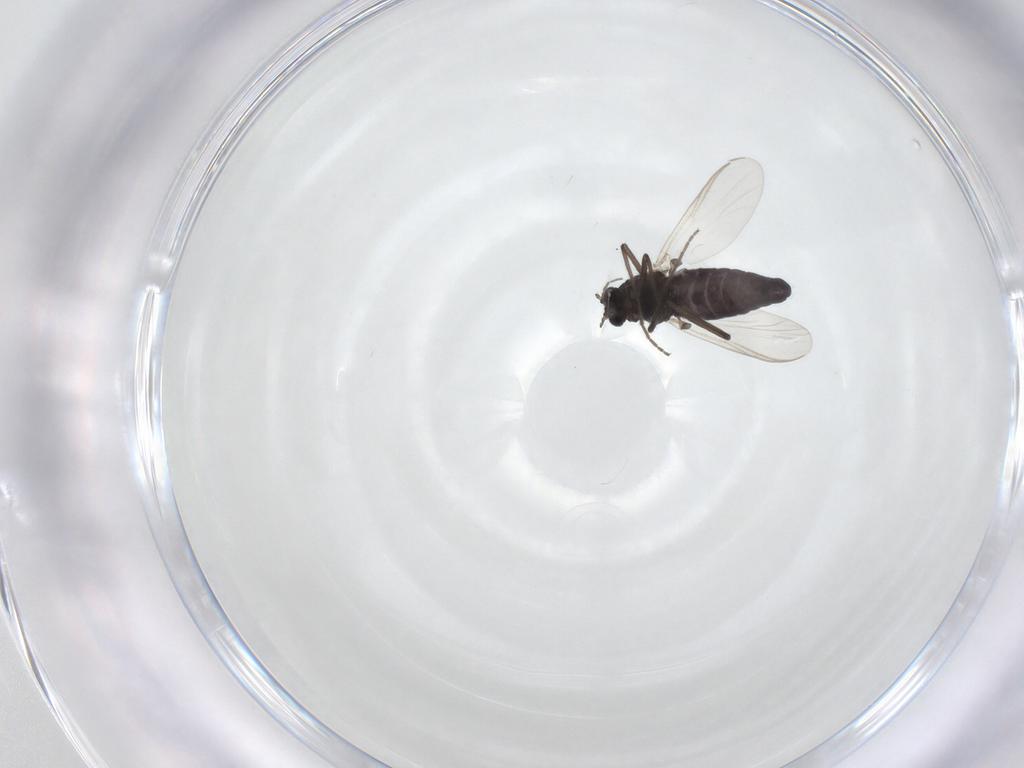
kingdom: Animalia
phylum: Arthropoda
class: Insecta
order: Diptera
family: Chironomidae
